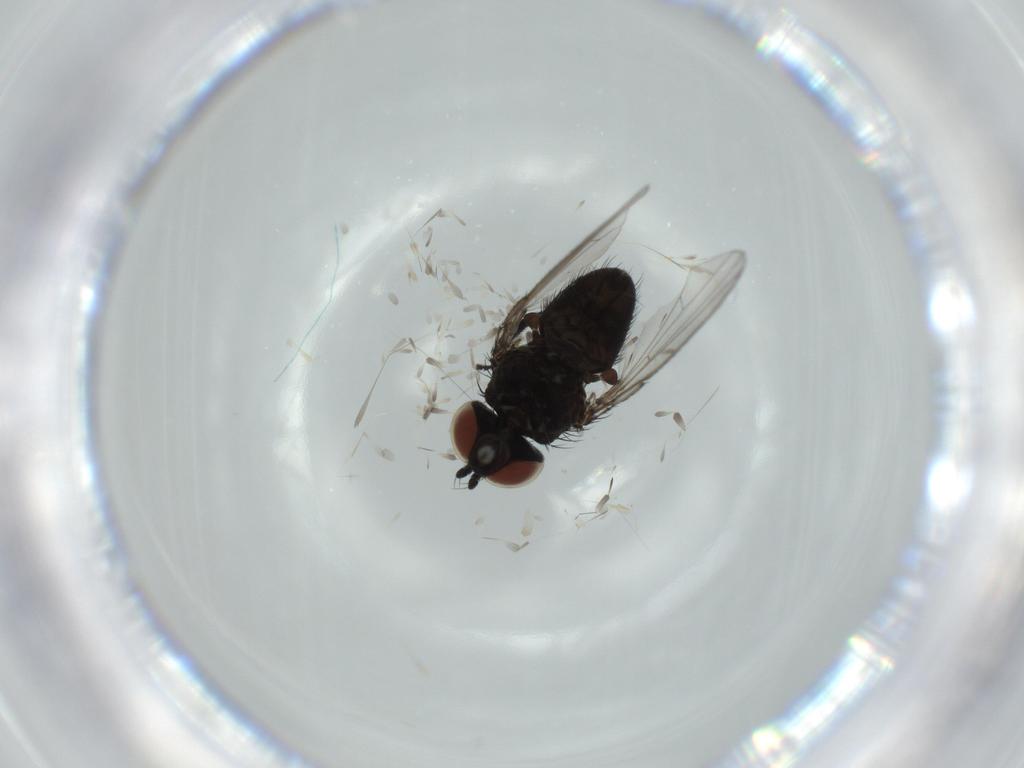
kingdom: Animalia
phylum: Arthropoda
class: Insecta
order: Diptera
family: Milichiidae
